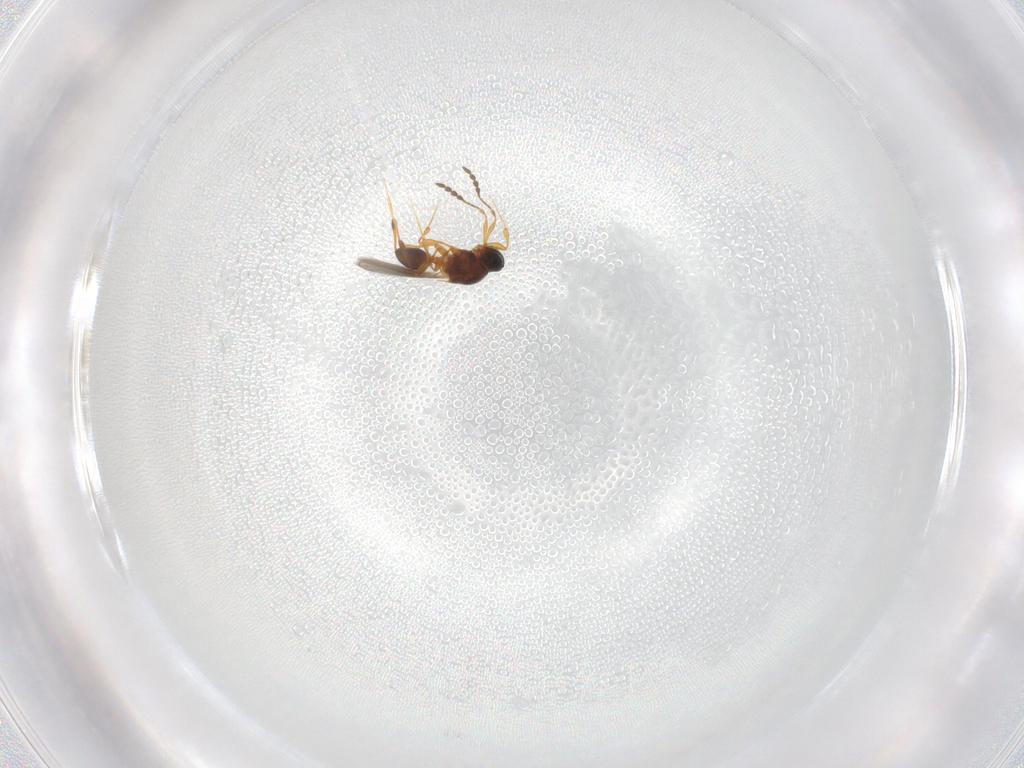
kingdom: Animalia
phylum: Arthropoda
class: Insecta
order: Hymenoptera
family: Platygastridae
